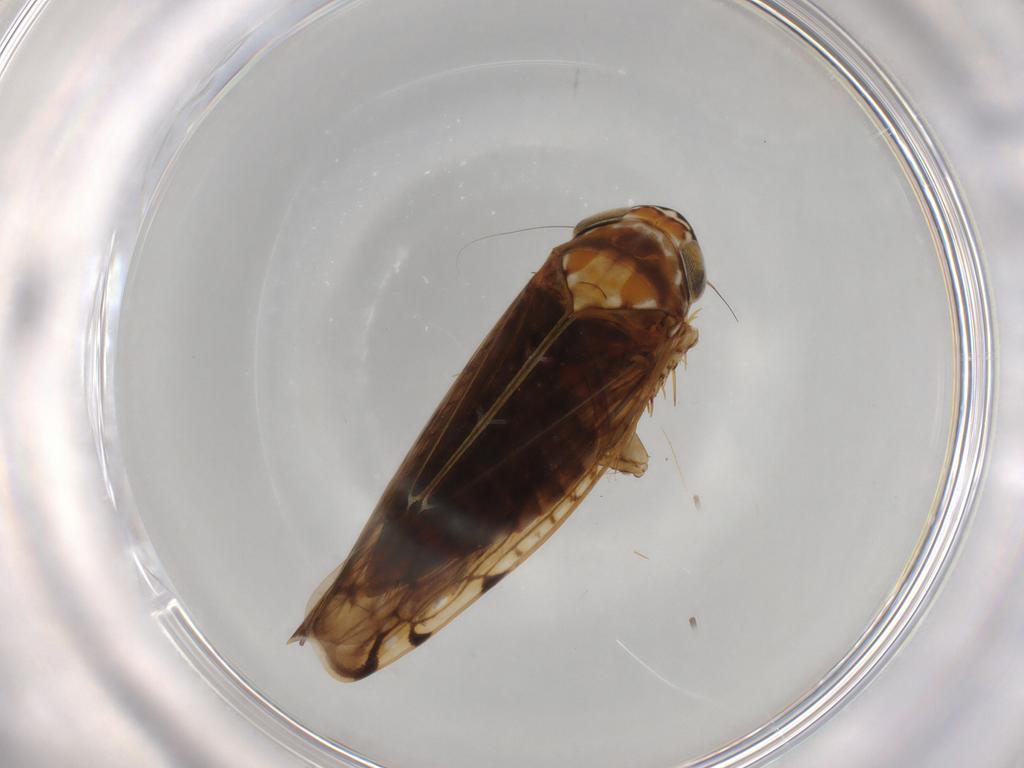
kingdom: Animalia
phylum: Arthropoda
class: Insecta
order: Hemiptera
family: Cicadellidae
